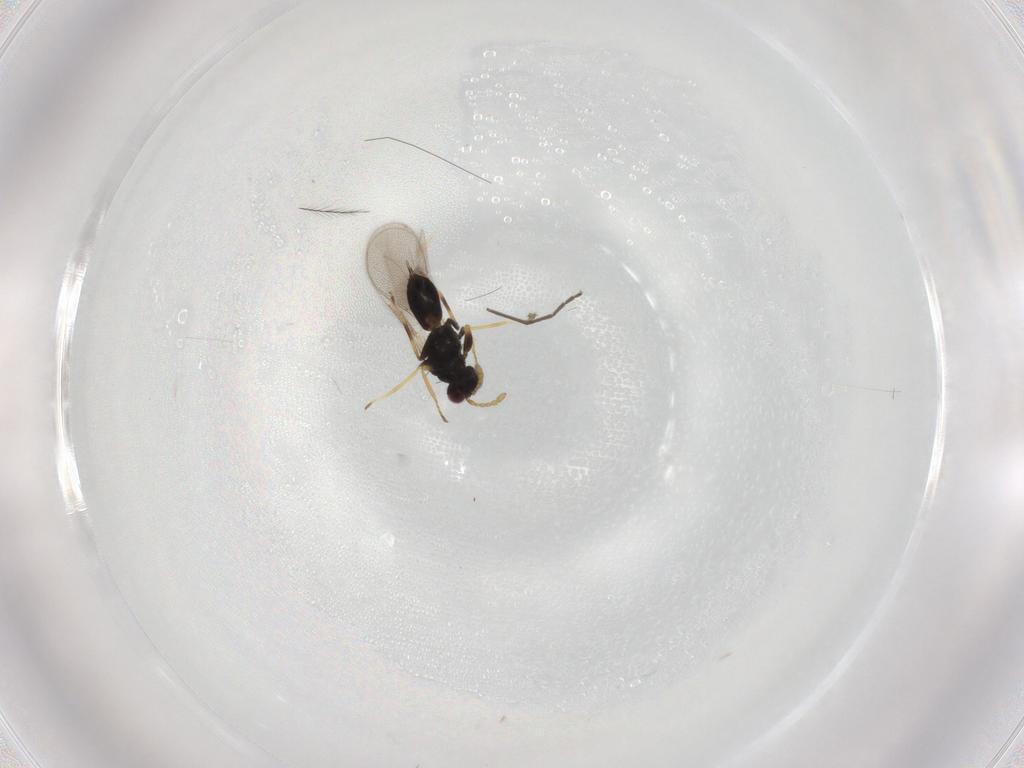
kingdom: Animalia
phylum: Arthropoda
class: Insecta
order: Hymenoptera
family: Eulophidae
